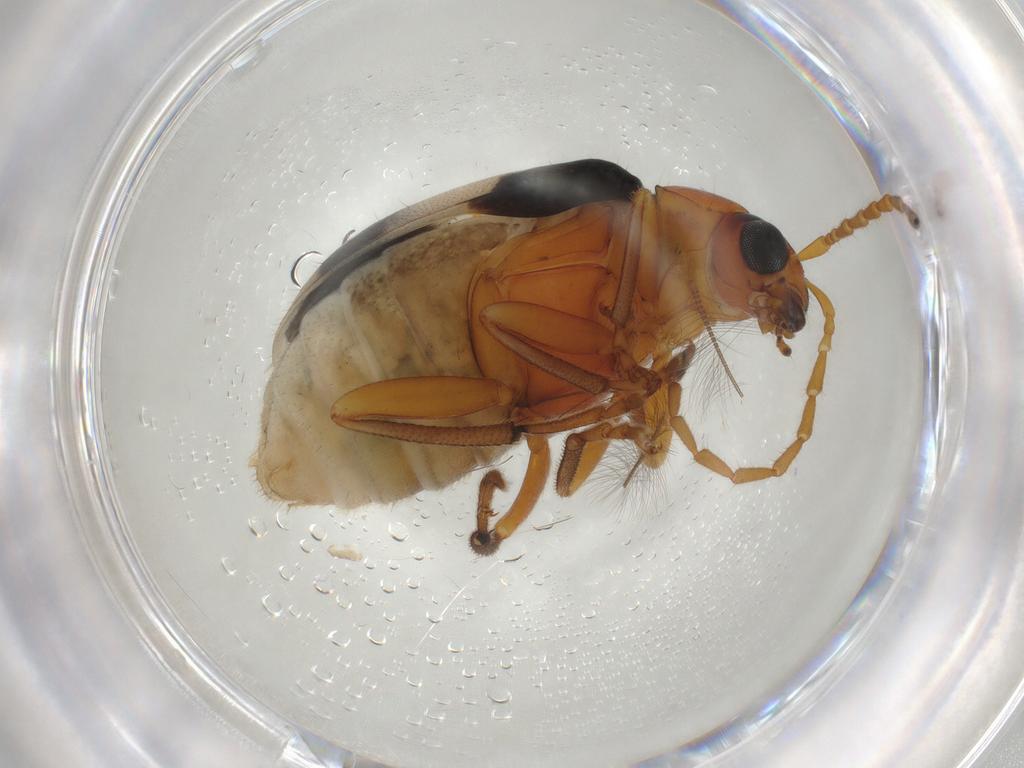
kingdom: Animalia
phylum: Arthropoda
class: Insecta
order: Coleoptera
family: Chrysomelidae
